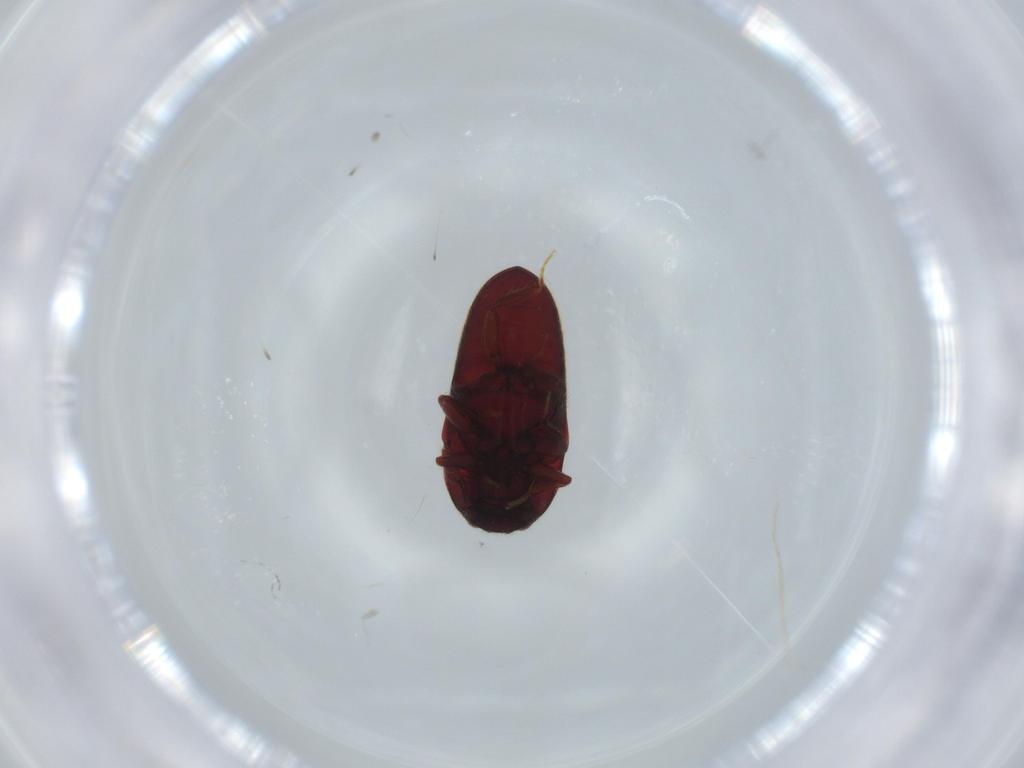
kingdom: Animalia
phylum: Arthropoda
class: Insecta
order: Coleoptera
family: Throscidae
